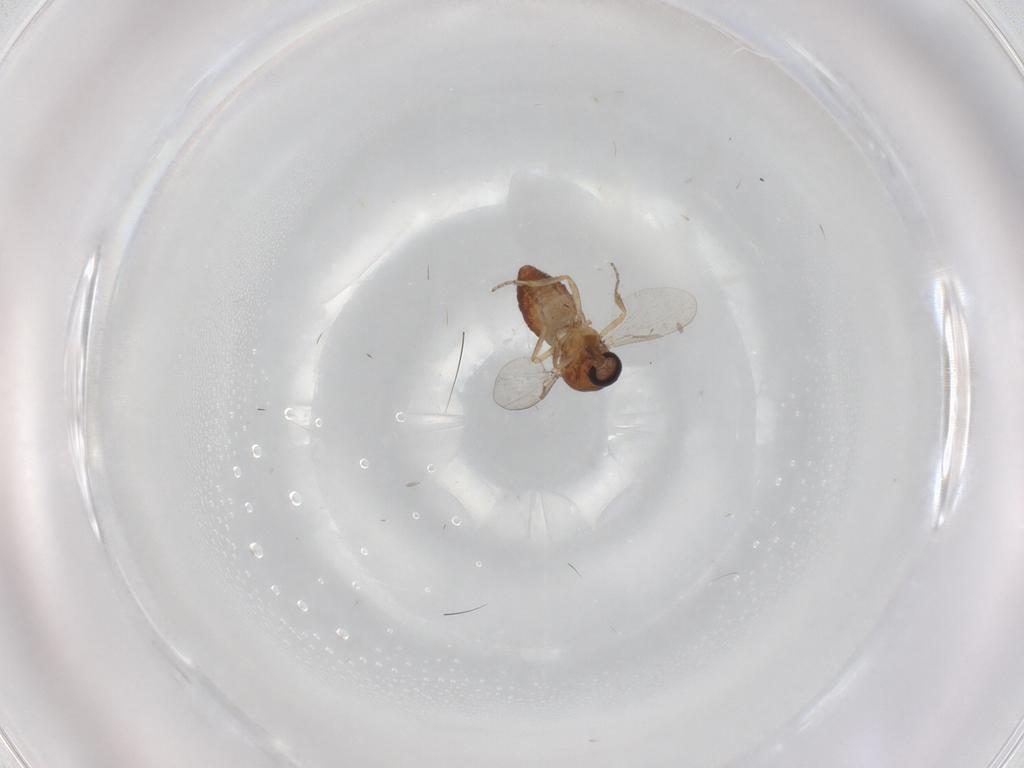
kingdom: Animalia
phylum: Arthropoda
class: Insecta
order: Diptera
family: Ceratopogonidae
